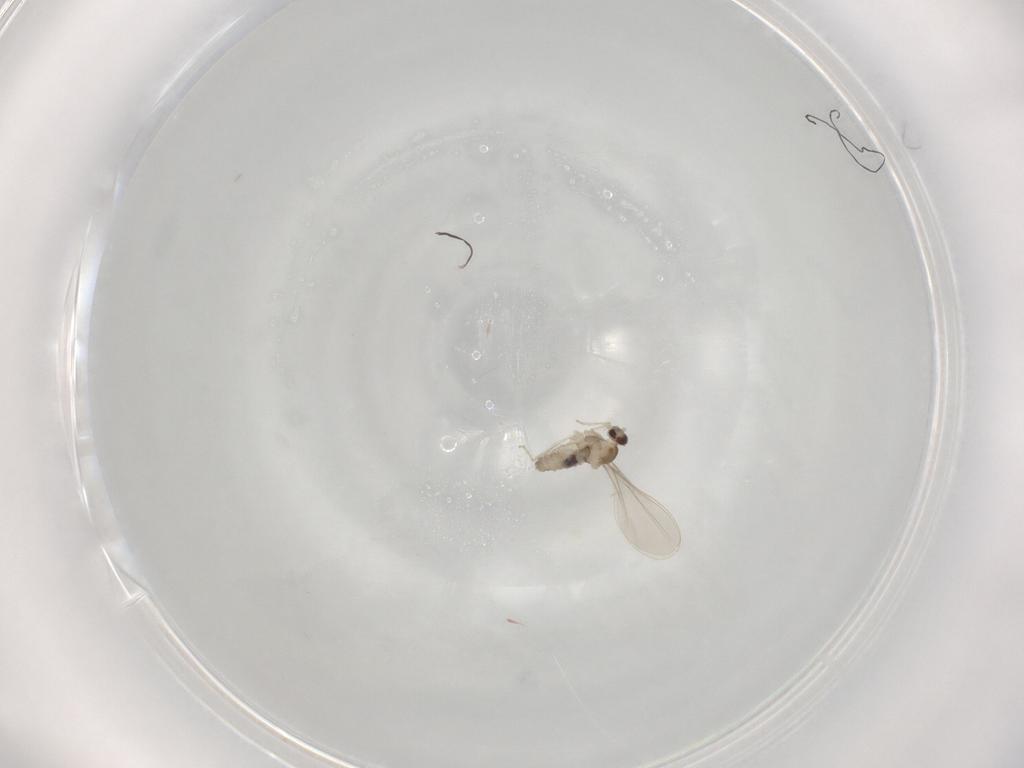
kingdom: Animalia
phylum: Arthropoda
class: Insecta
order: Diptera
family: Cecidomyiidae
